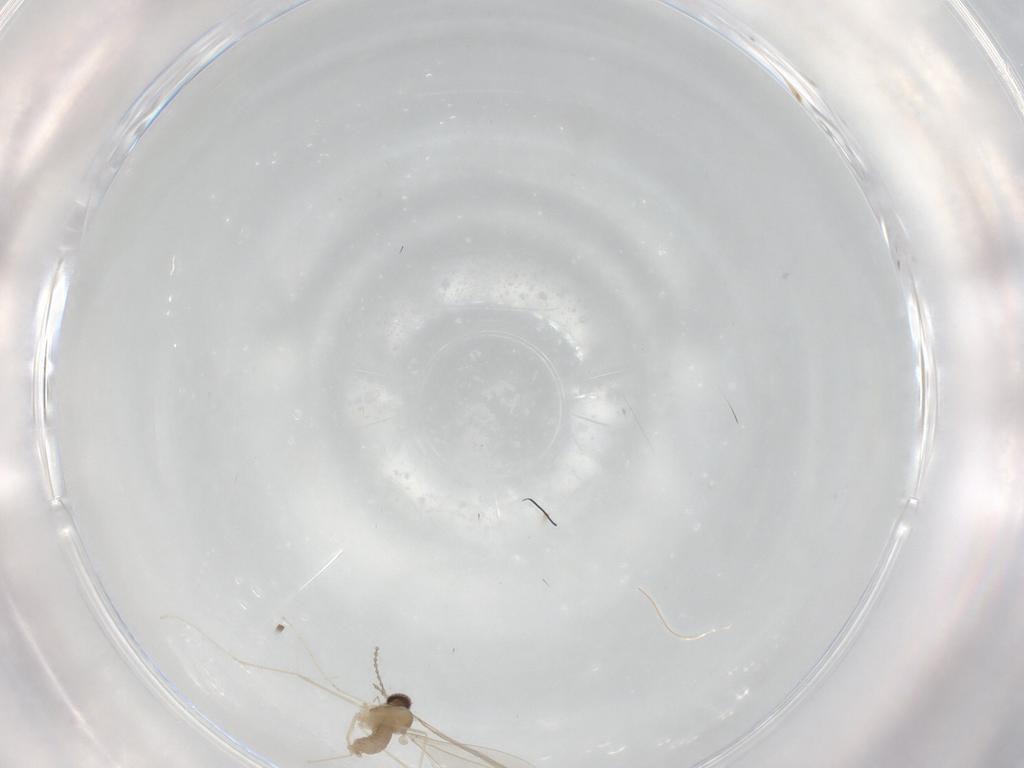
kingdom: Animalia
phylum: Arthropoda
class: Insecta
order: Diptera
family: Cecidomyiidae
